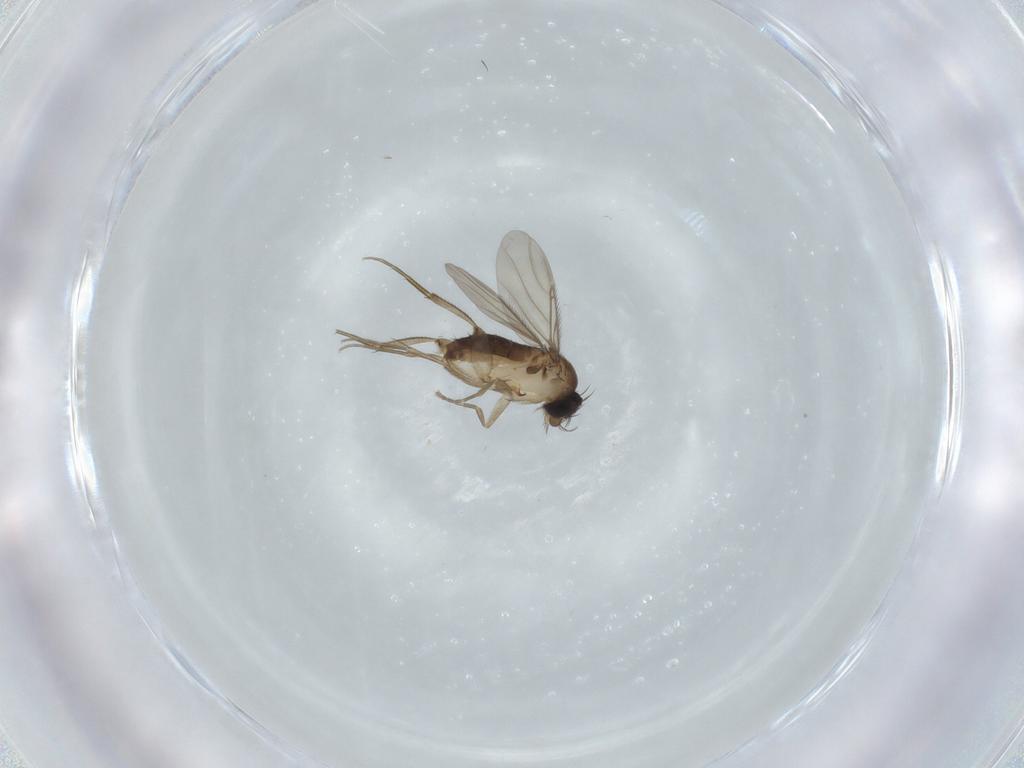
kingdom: Animalia
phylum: Arthropoda
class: Insecta
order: Diptera
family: Phoridae
